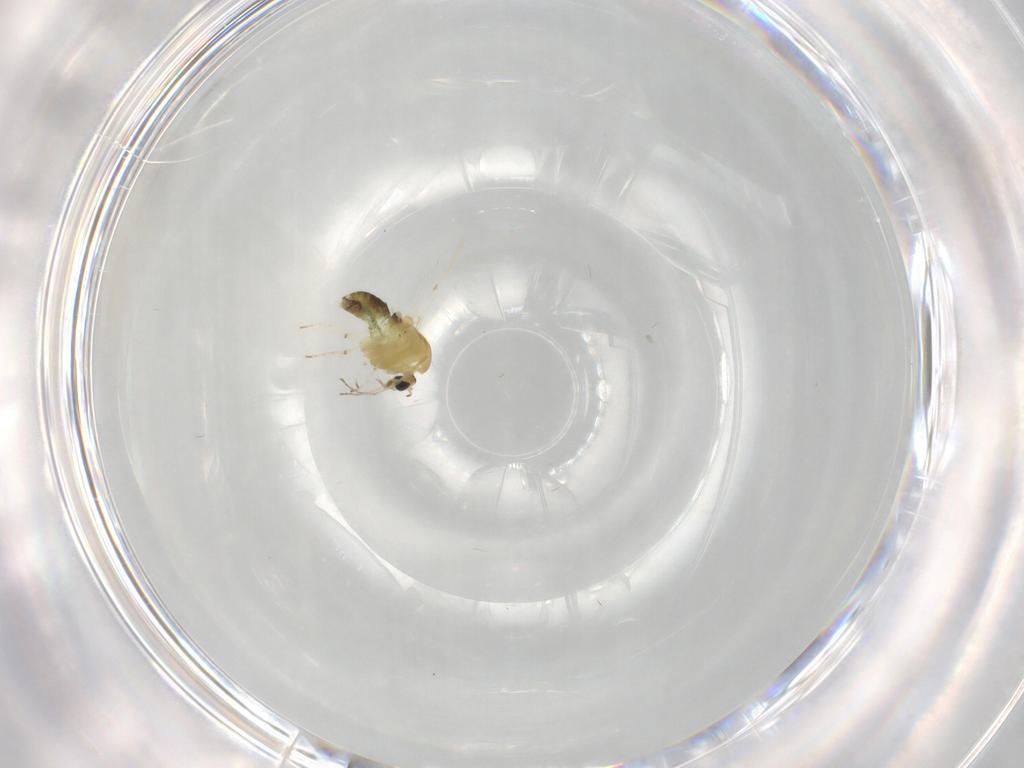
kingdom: Animalia
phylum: Arthropoda
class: Insecta
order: Diptera
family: Chironomidae
